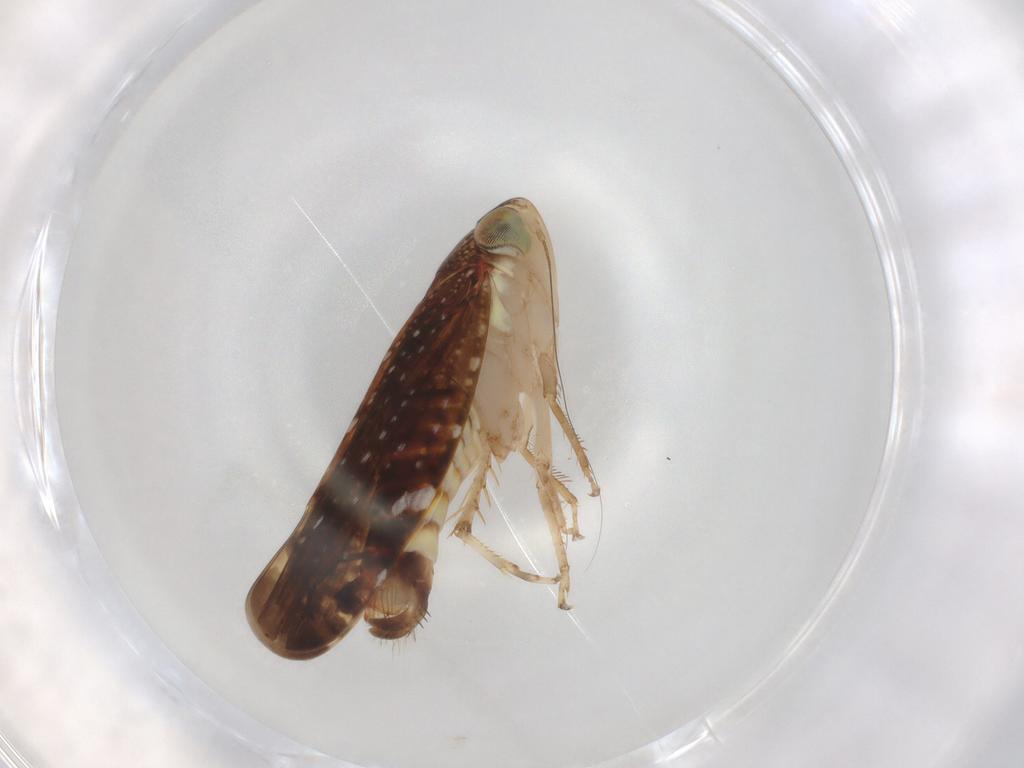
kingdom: Animalia
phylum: Arthropoda
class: Insecta
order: Hemiptera
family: Cicadellidae
